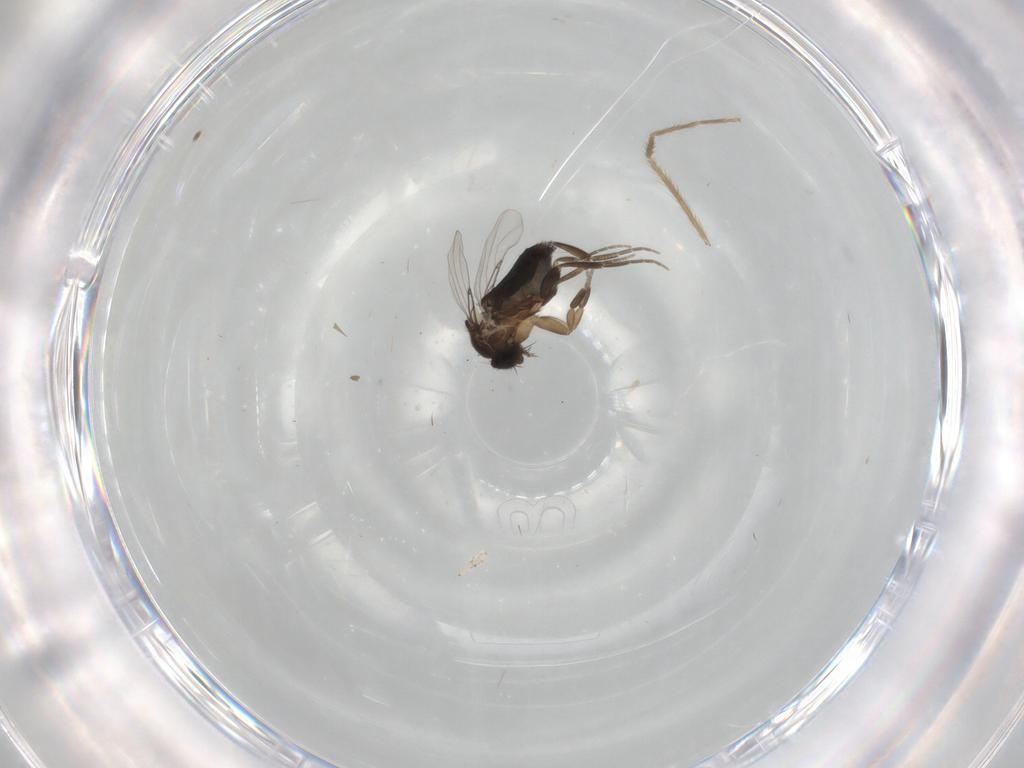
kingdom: Animalia
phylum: Arthropoda
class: Insecta
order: Diptera
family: Phoridae
